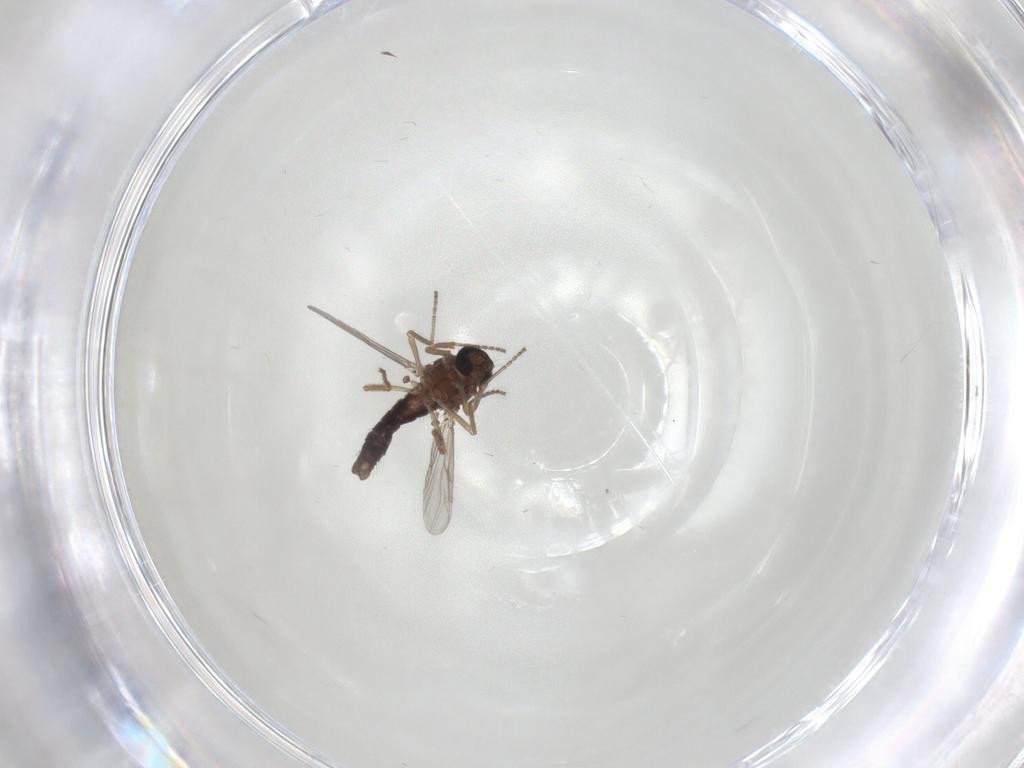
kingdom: Animalia
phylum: Arthropoda
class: Insecta
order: Diptera
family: Ceratopogonidae
